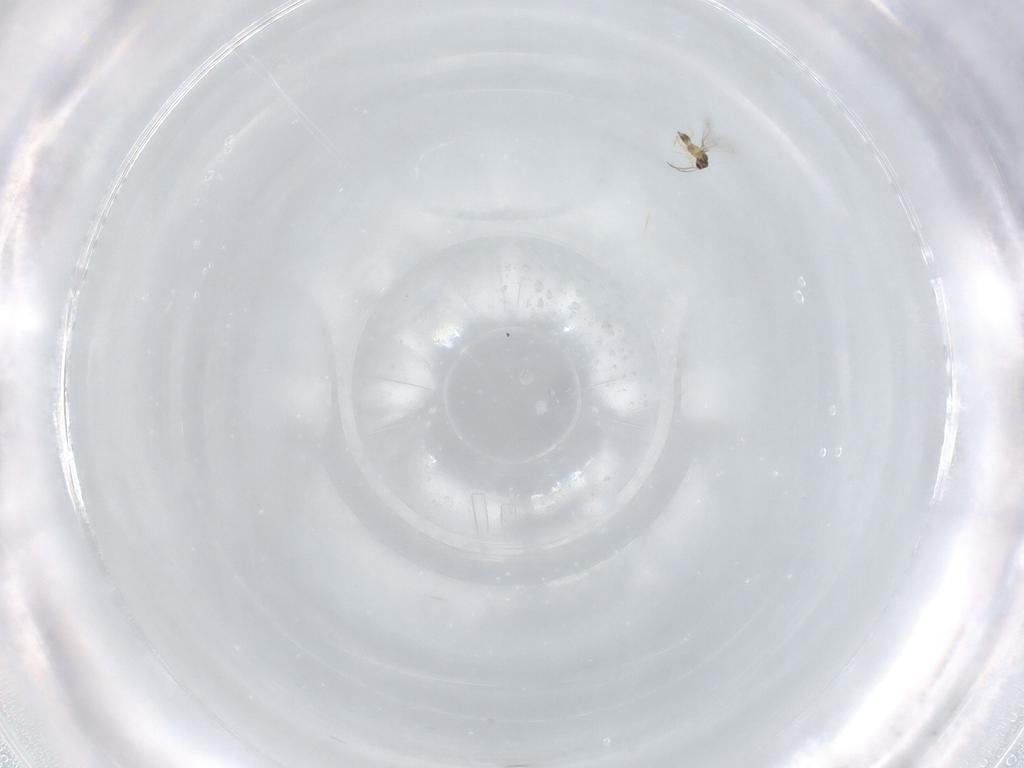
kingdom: Animalia
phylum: Arthropoda
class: Insecta
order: Hymenoptera
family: Mymaridae
